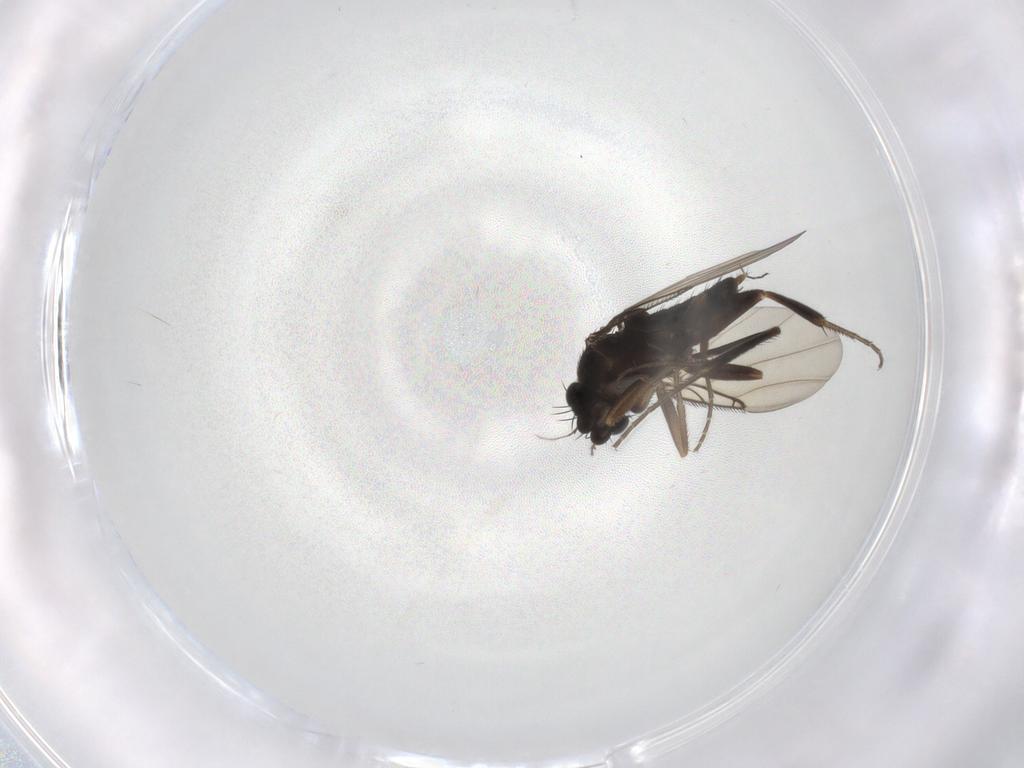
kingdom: Animalia
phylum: Arthropoda
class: Insecta
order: Diptera
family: Phoridae
